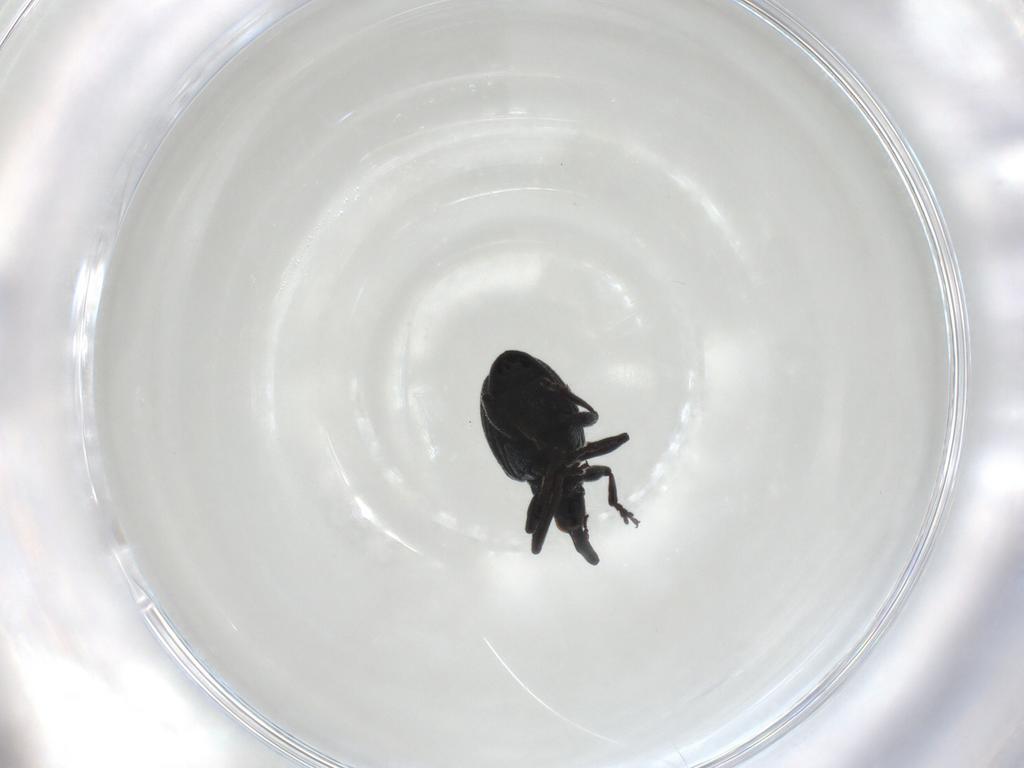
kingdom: Animalia
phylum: Arthropoda
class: Insecta
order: Coleoptera
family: Brentidae
